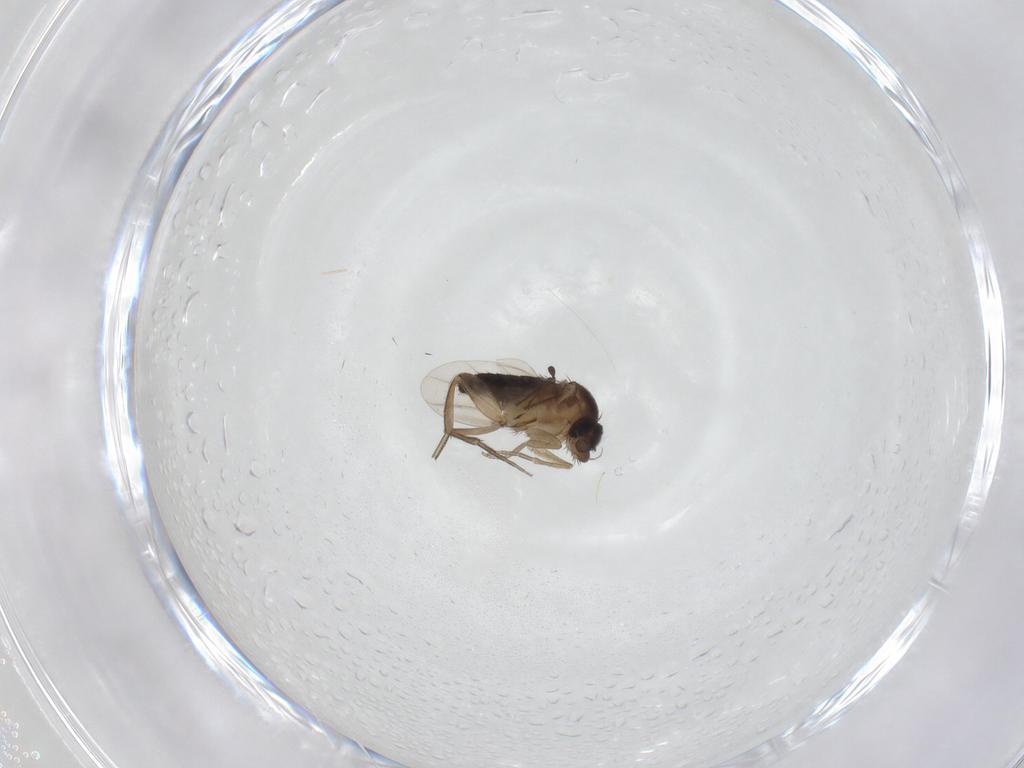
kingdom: Animalia
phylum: Arthropoda
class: Insecta
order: Diptera
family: Phoridae
